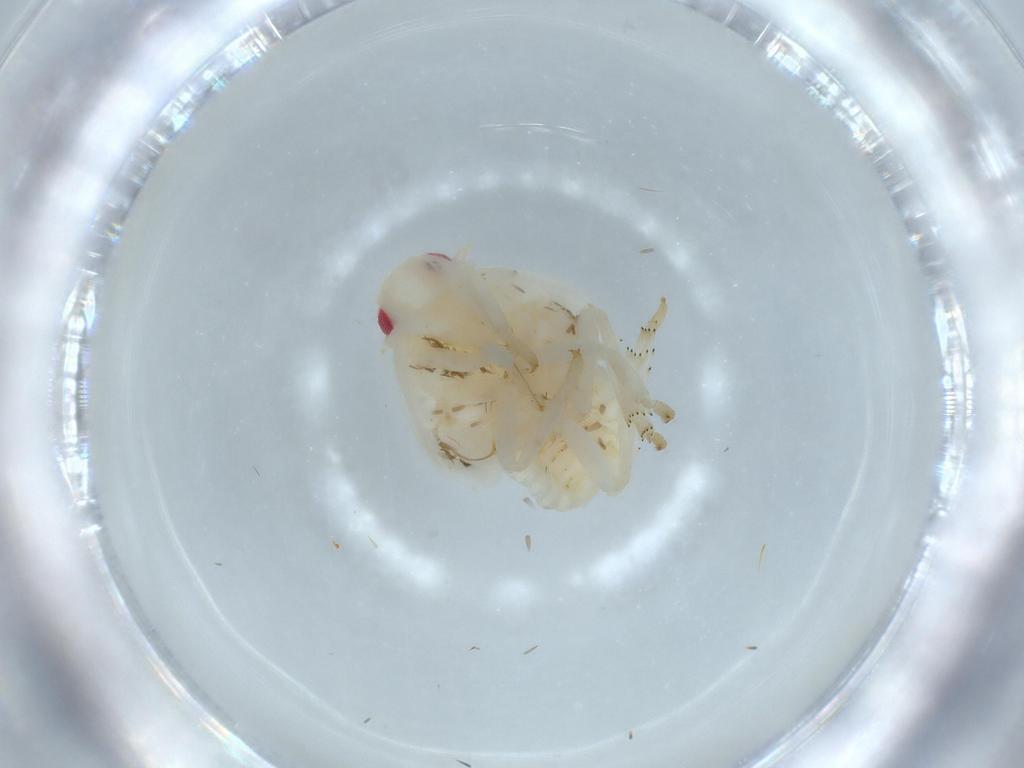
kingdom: Animalia
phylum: Arthropoda
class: Insecta
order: Hemiptera
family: Flatidae
